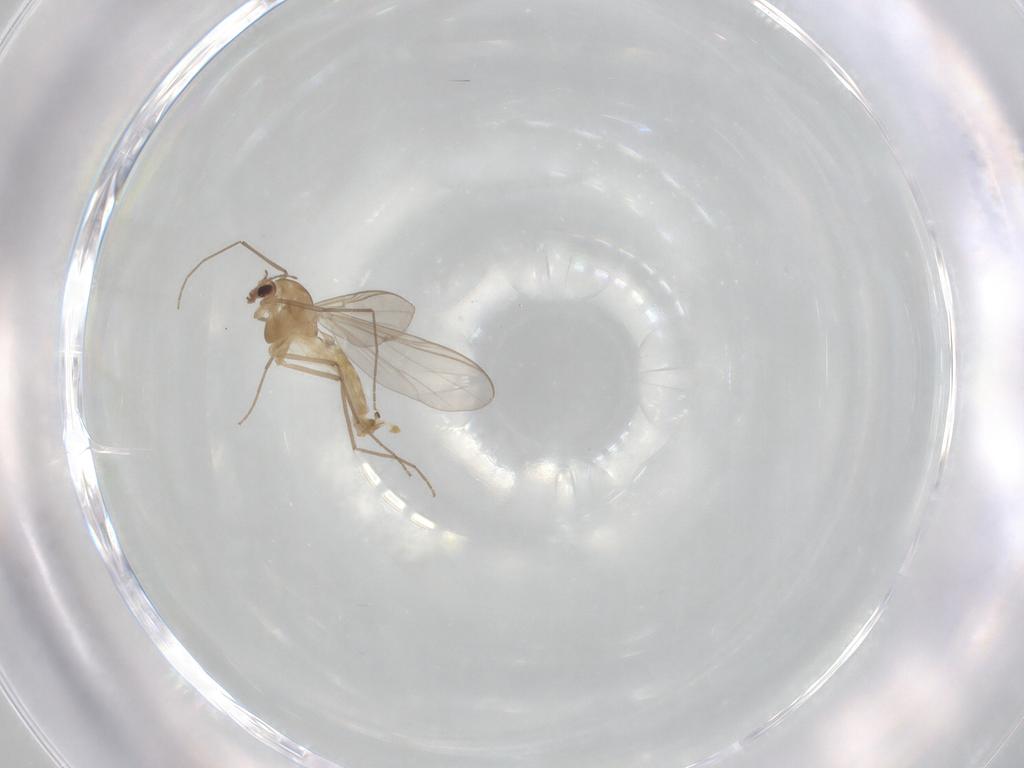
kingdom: Animalia
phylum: Arthropoda
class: Insecta
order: Diptera
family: Chironomidae
